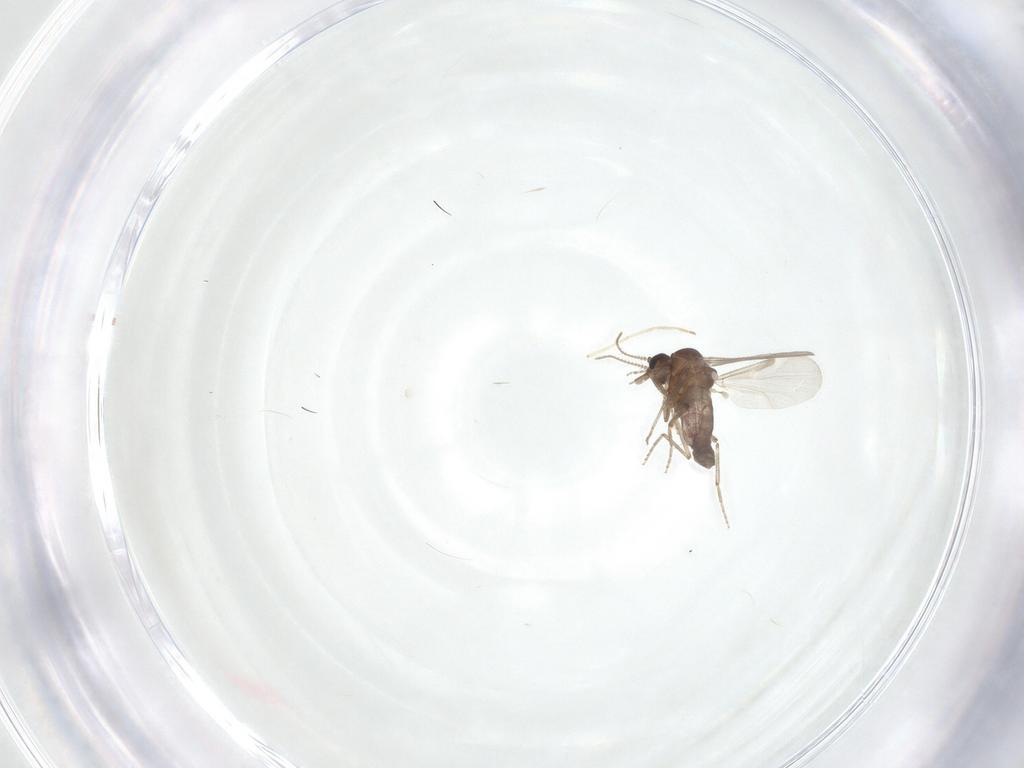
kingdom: Animalia
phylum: Arthropoda
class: Insecta
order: Diptera
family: Ceratopogonidae
